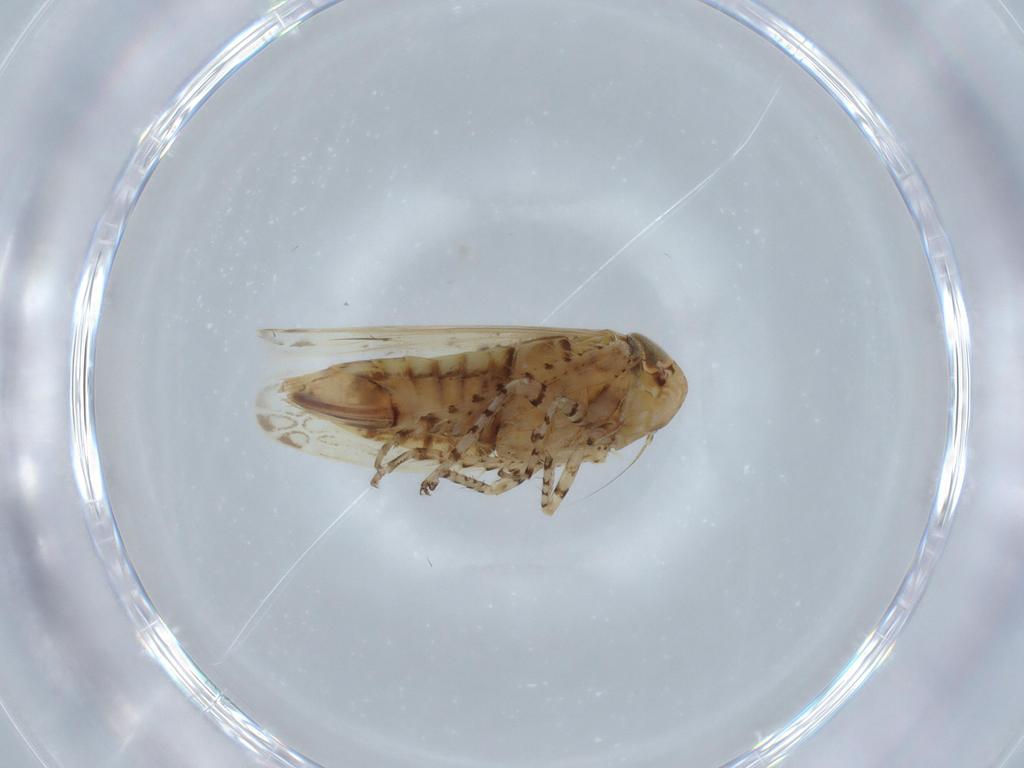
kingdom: Animalia
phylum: Arthropoda
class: Insecta
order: Hemiptera
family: Cicadellidae
